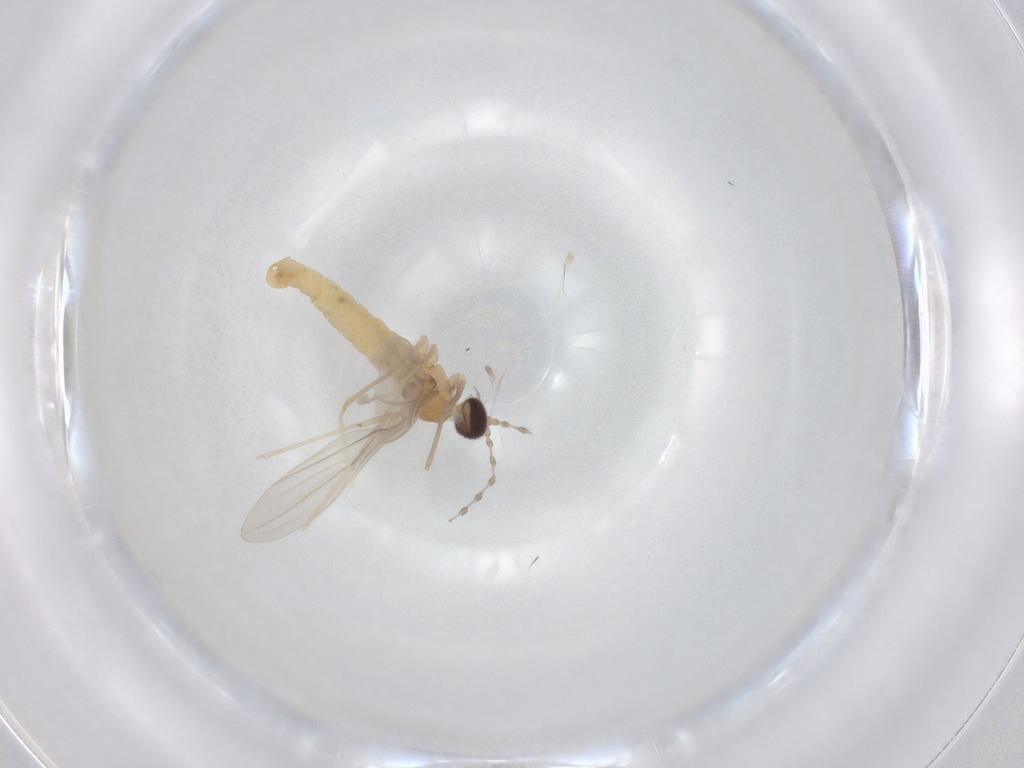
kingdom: Animalia
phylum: Arthropoda
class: Insecta
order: Diptera
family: Cecidomyiidae
